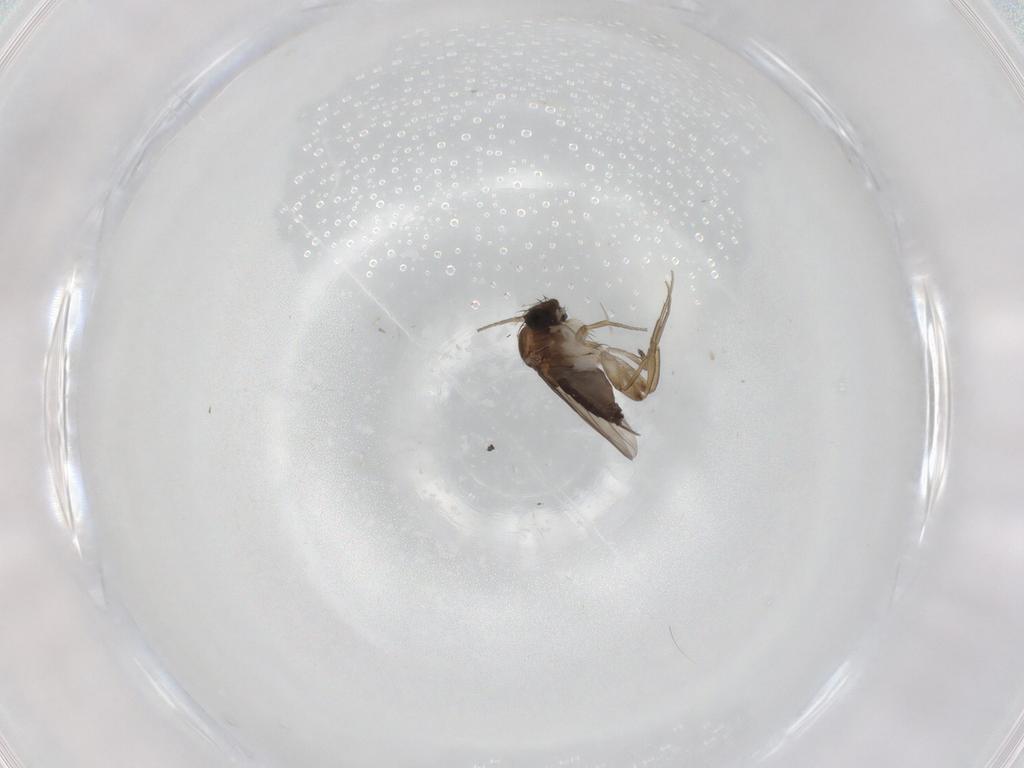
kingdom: Animalia
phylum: Arthropoda
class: Insecta
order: Diptera
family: Phoridae
